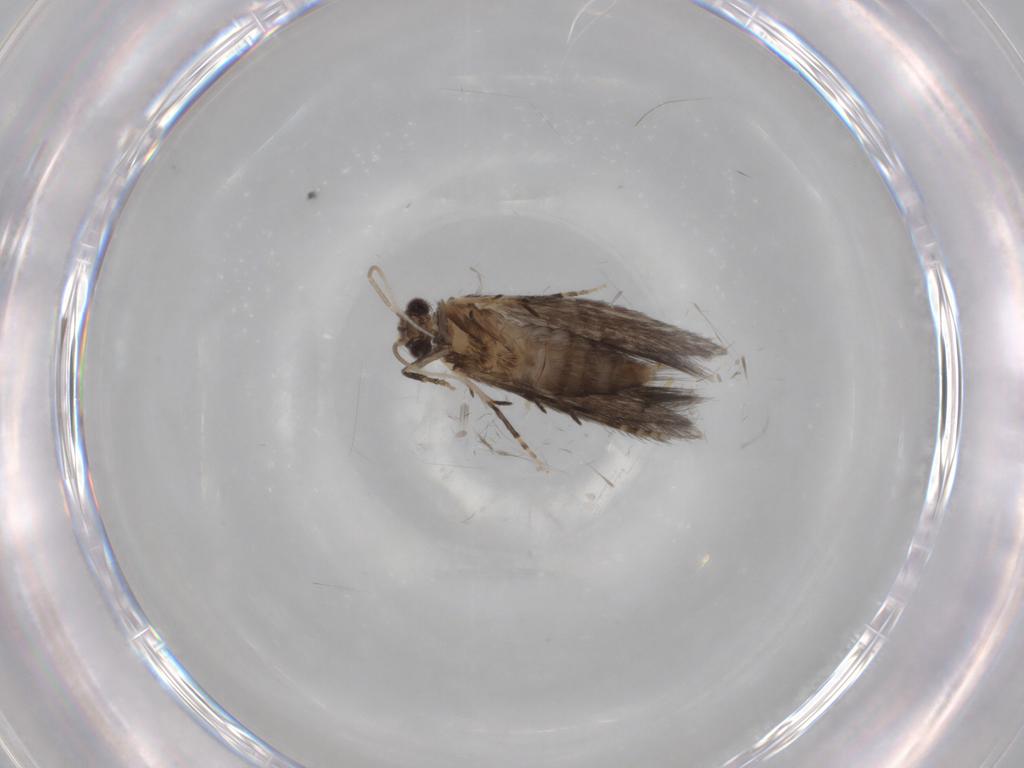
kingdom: Animalia
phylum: Arthropoda
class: Insecta
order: Trichoptera
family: Hydroptilidae
